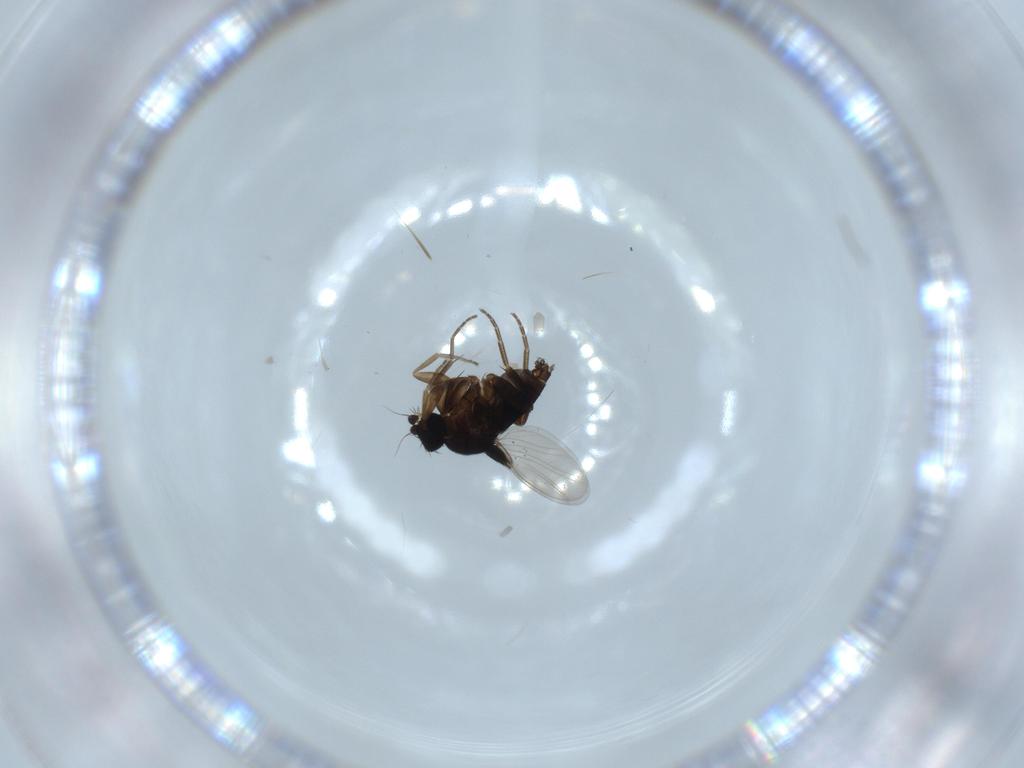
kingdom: Animalia
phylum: Arthropoda
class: Insecta
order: Diptera
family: Phoridae
